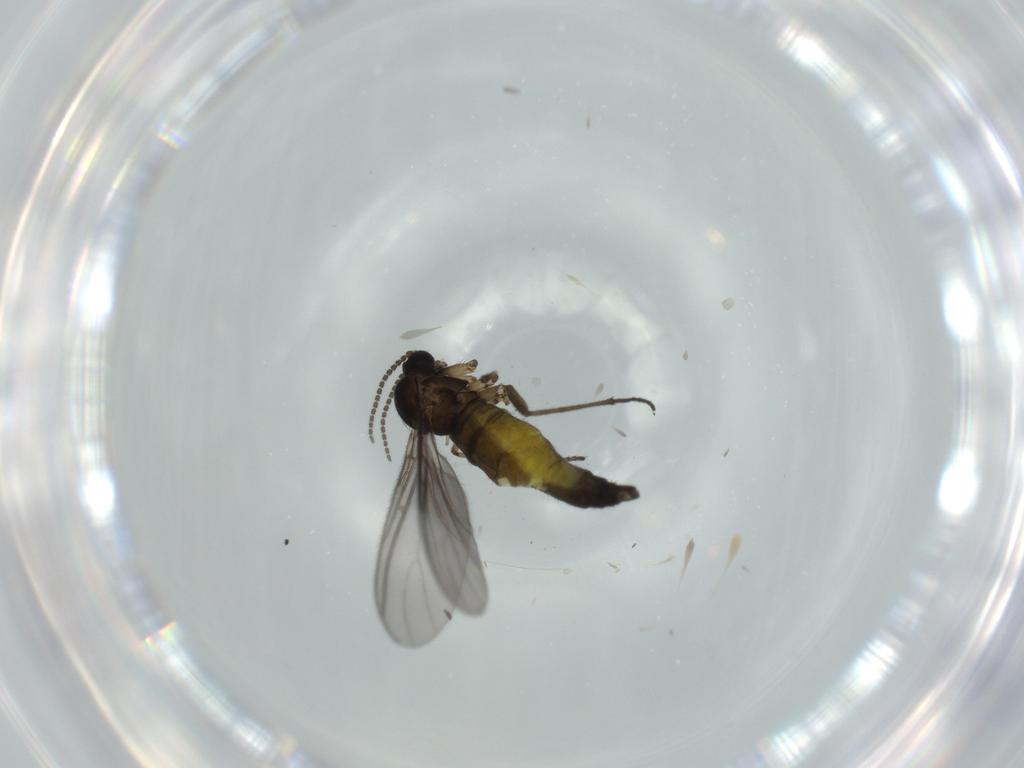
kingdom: Animalia
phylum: Arthropoda
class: Insecta
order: Diptera
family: Sciaridae
